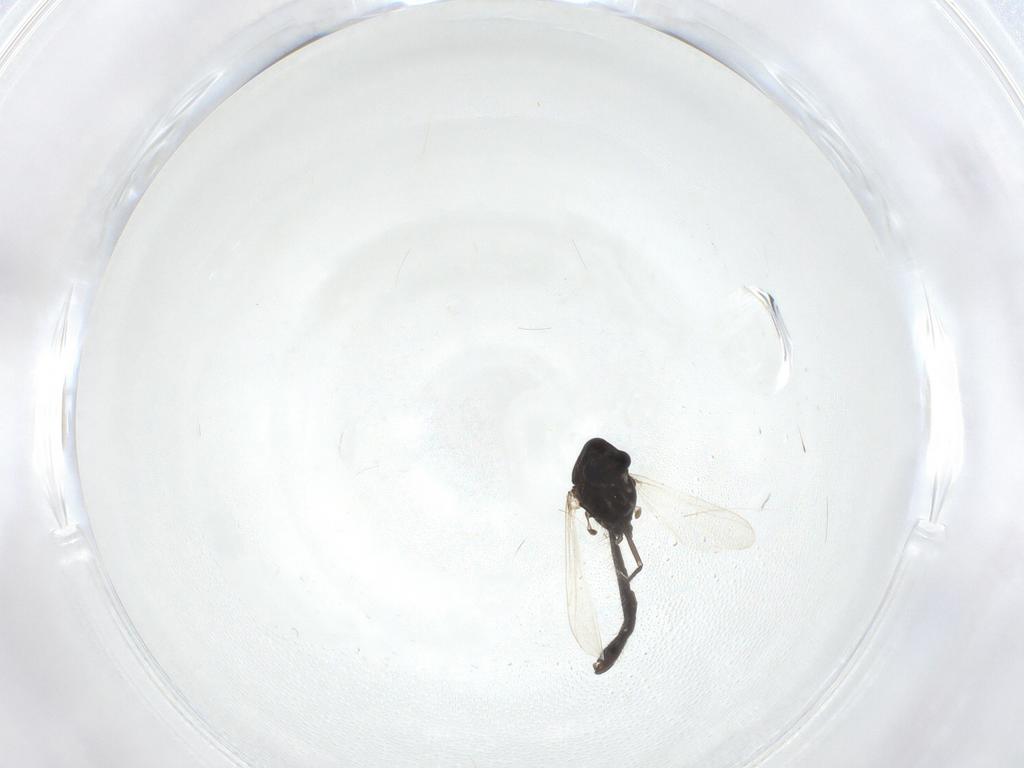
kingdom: Animalia
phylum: Arthropoda
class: Insecta
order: Diptera
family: Chironomidae
